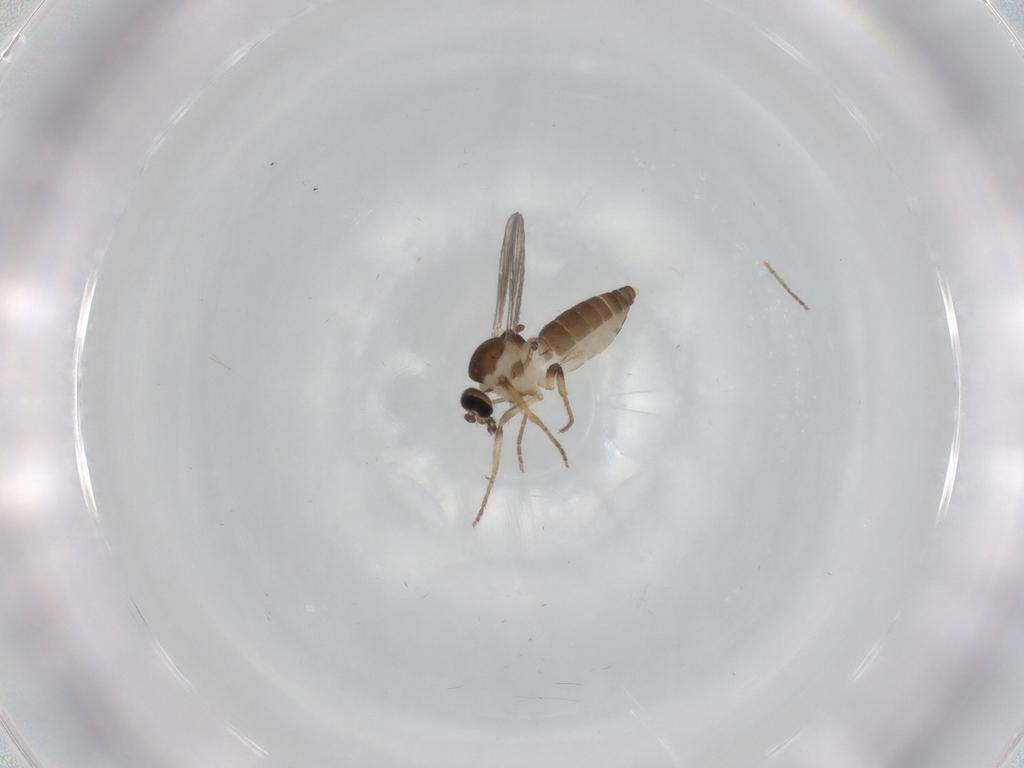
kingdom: Animalia
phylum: Arthropoda
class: Insecta
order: Diptera
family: Ceratopogonidae
